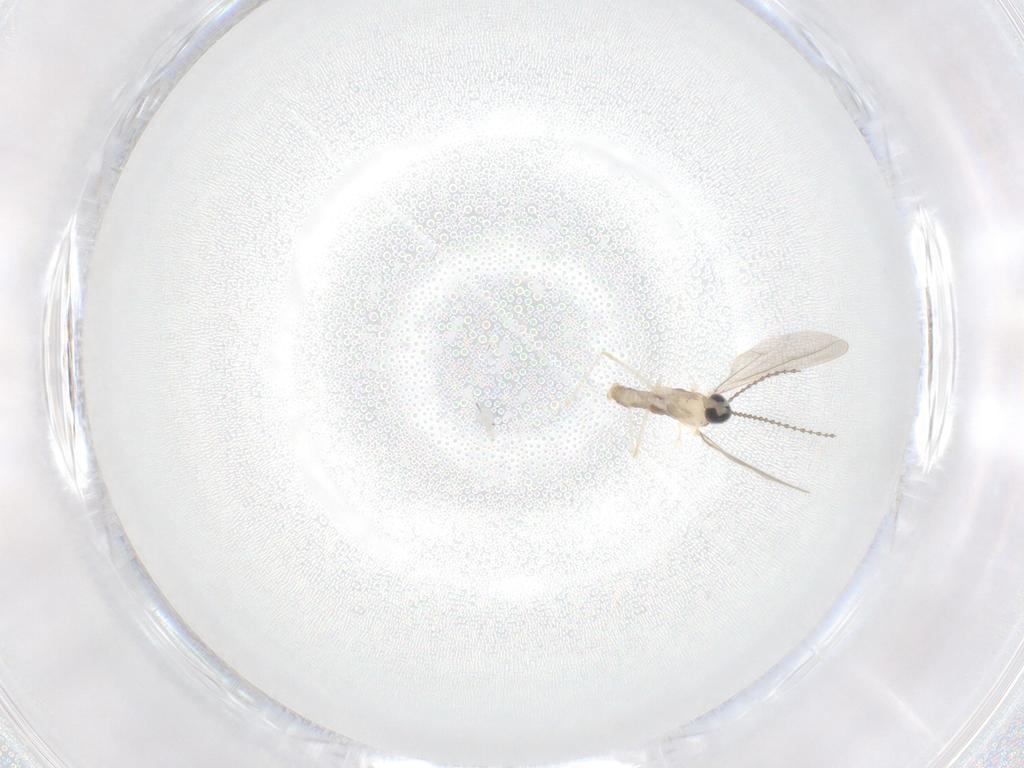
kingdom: Animalia
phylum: Arthropoda
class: Insecta
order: Diptera
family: Cecidomyiidae
